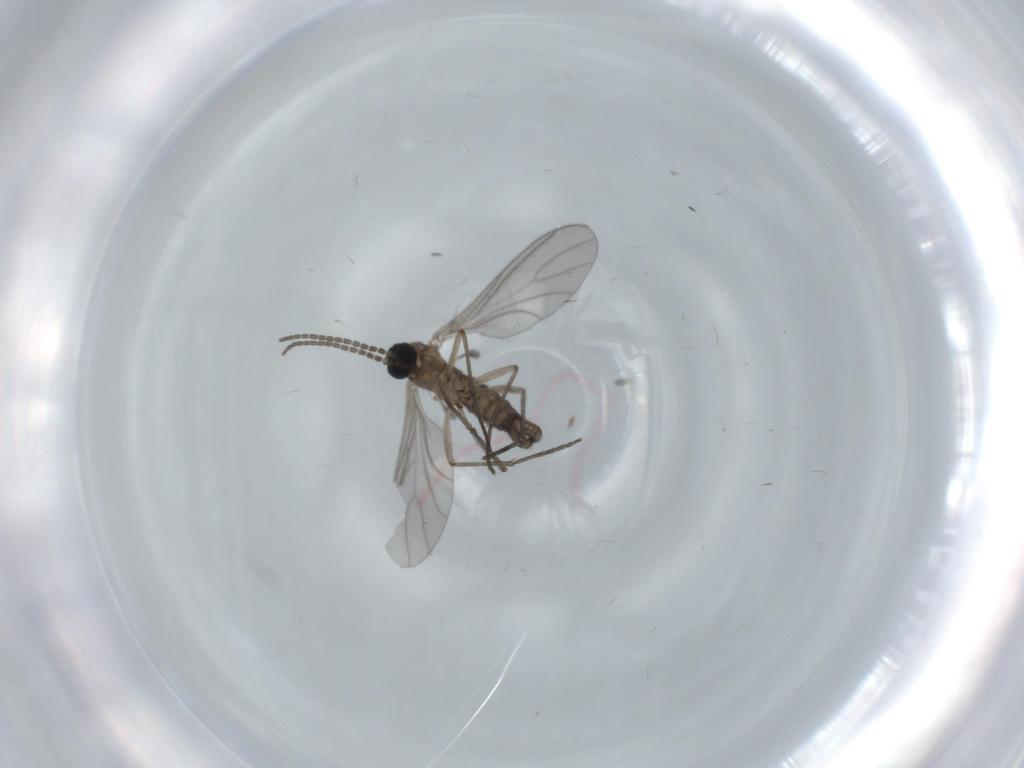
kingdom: Animalia
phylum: Arthropoda
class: Insecta
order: Diptera
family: Sciaridae
